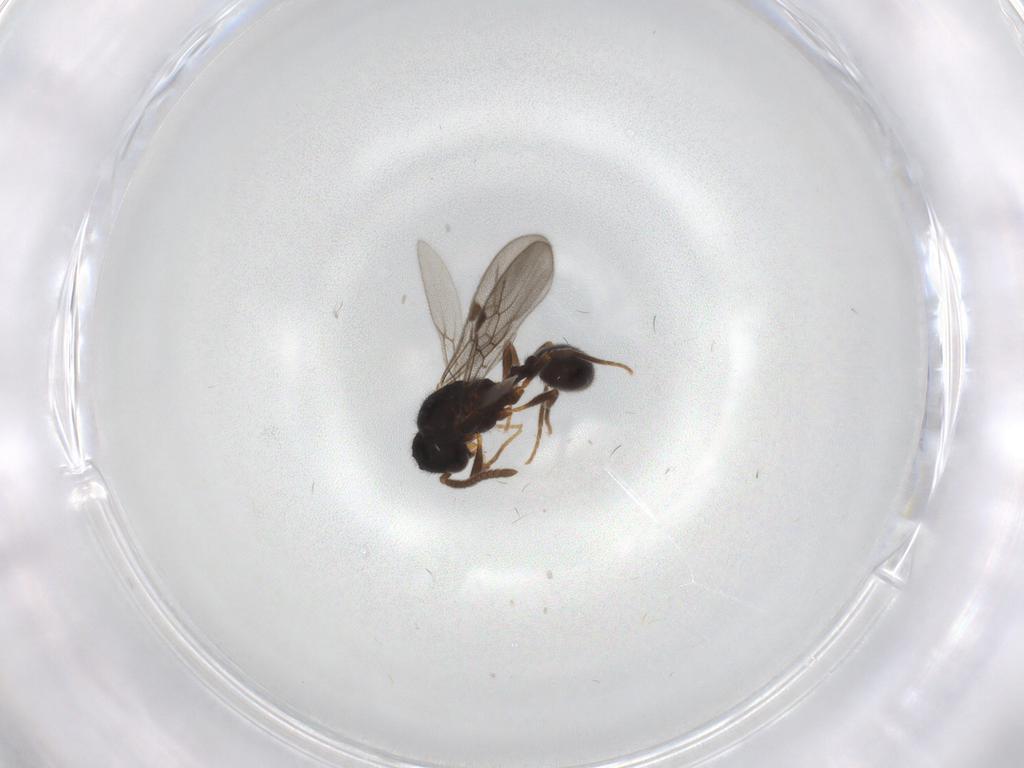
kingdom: Animalia
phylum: Arthropoda
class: Insecta
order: Hymenoptera
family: Formicidae
